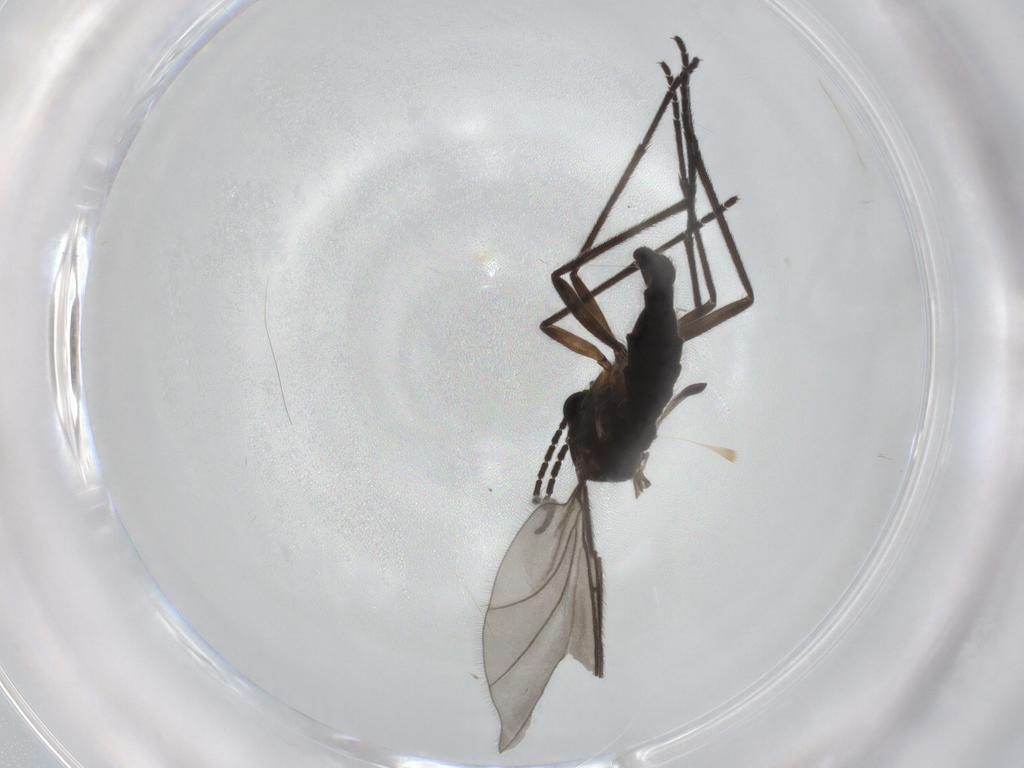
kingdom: Animalia
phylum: Arthropoda
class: Insecta
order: Diptera
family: Sciaridae
